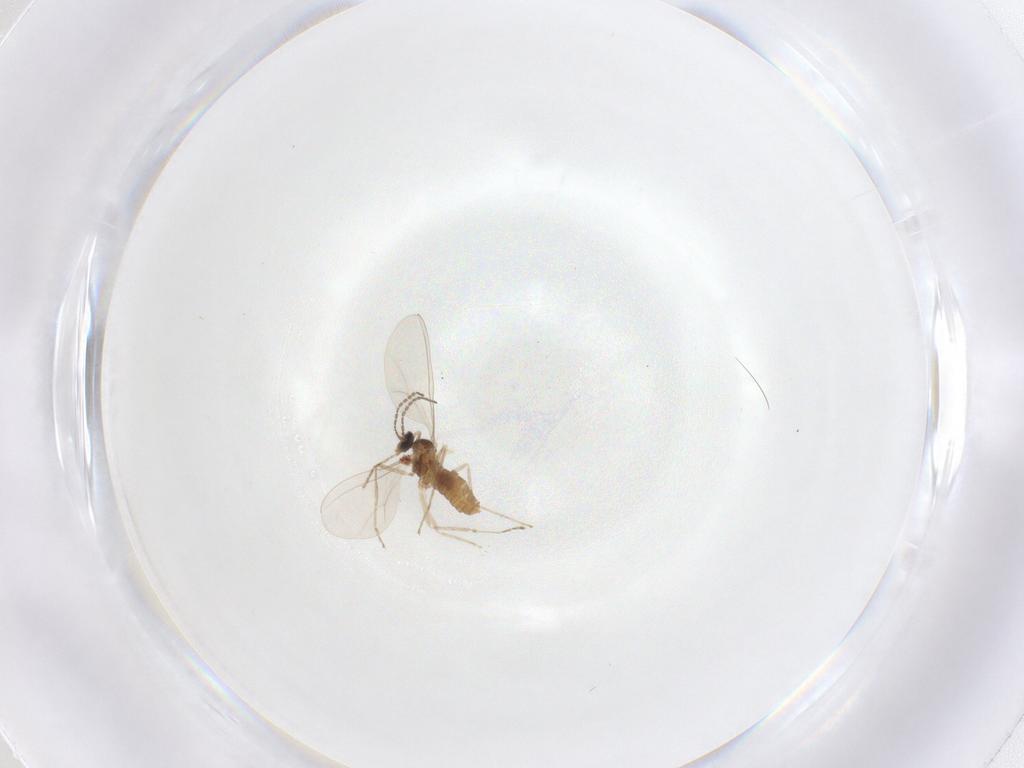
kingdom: Animalia
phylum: Arthropoda
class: Insecta
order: Diptera
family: Cecidomyiidae
